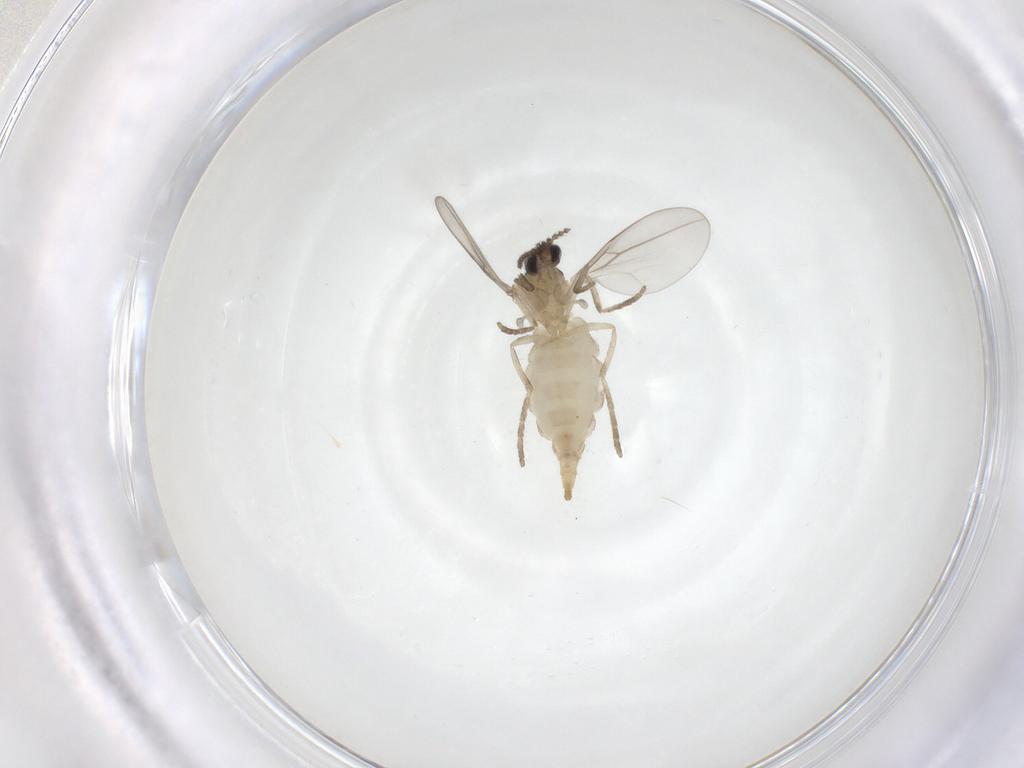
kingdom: Animalia
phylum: Arthropoda
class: Insecta
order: Diptera
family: Cecidomyiidae
